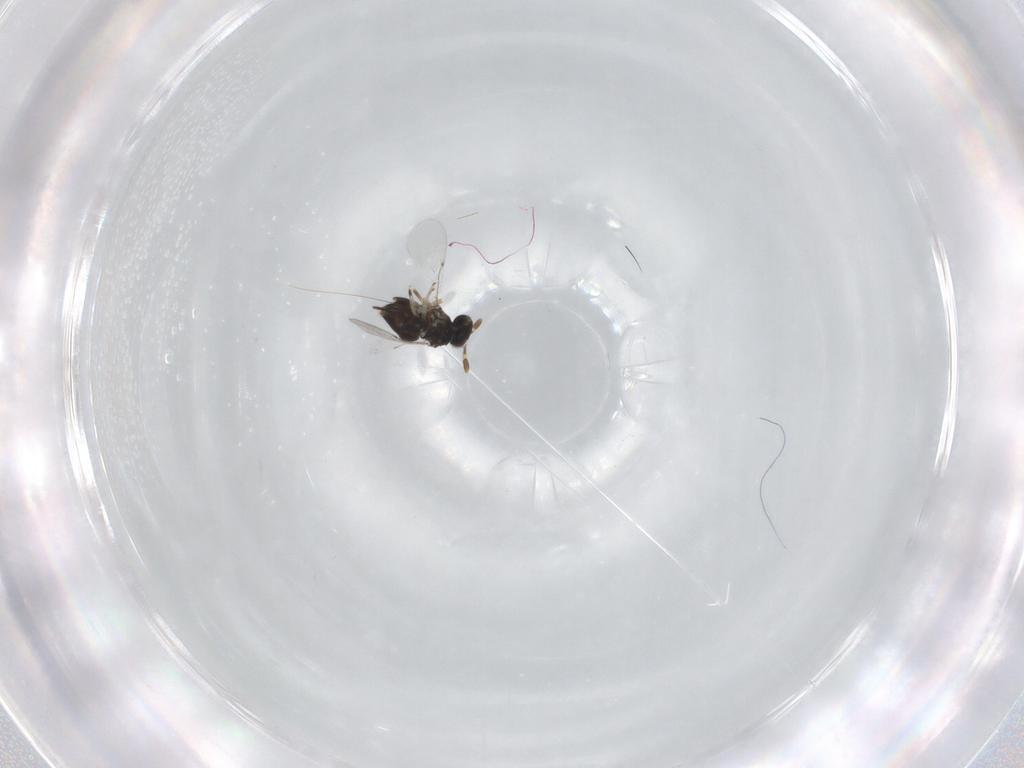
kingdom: Animalia
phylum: Arthropoda
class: Insecta
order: Hymenoptera
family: Encyrtidae
